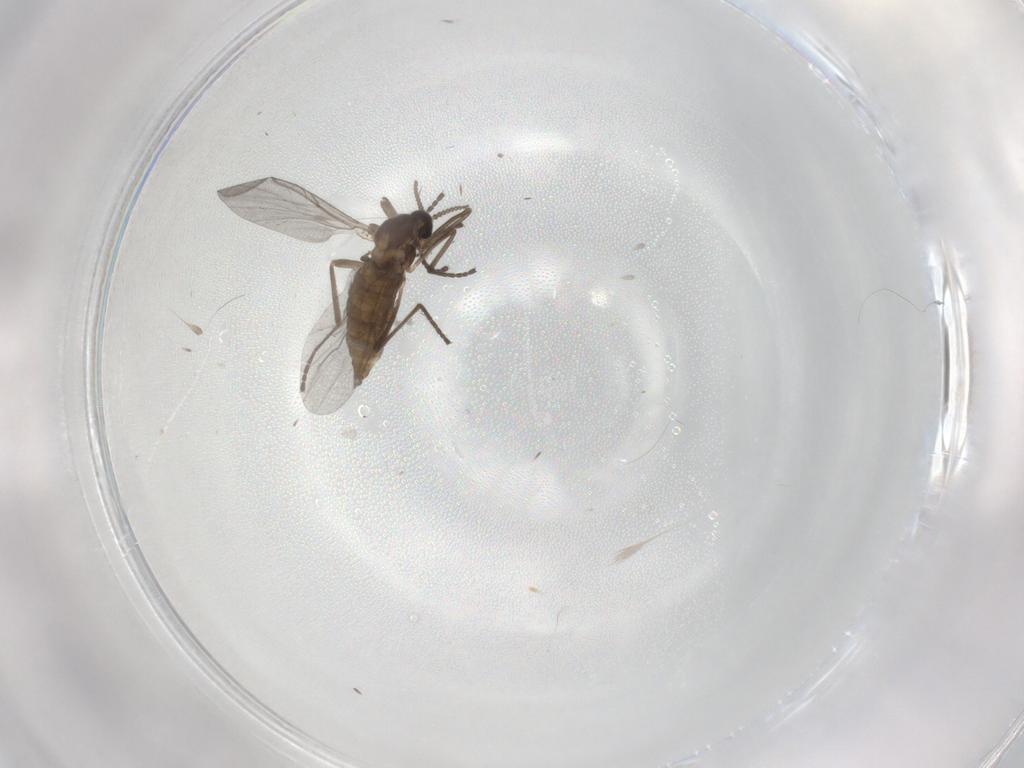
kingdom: Animalia
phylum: Arthropoda
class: Insecta
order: Diptera
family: Cecidomyiidae
